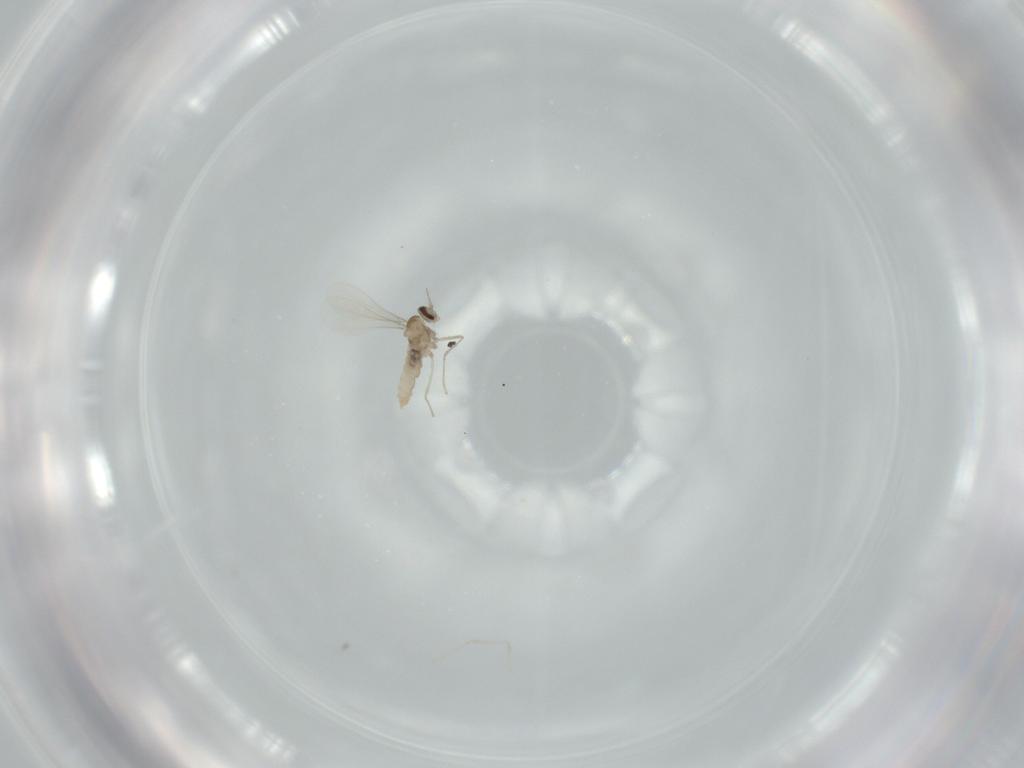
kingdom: Animalia
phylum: Arthropoda
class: Insecta
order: Diptera
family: Cecidomyiidae
